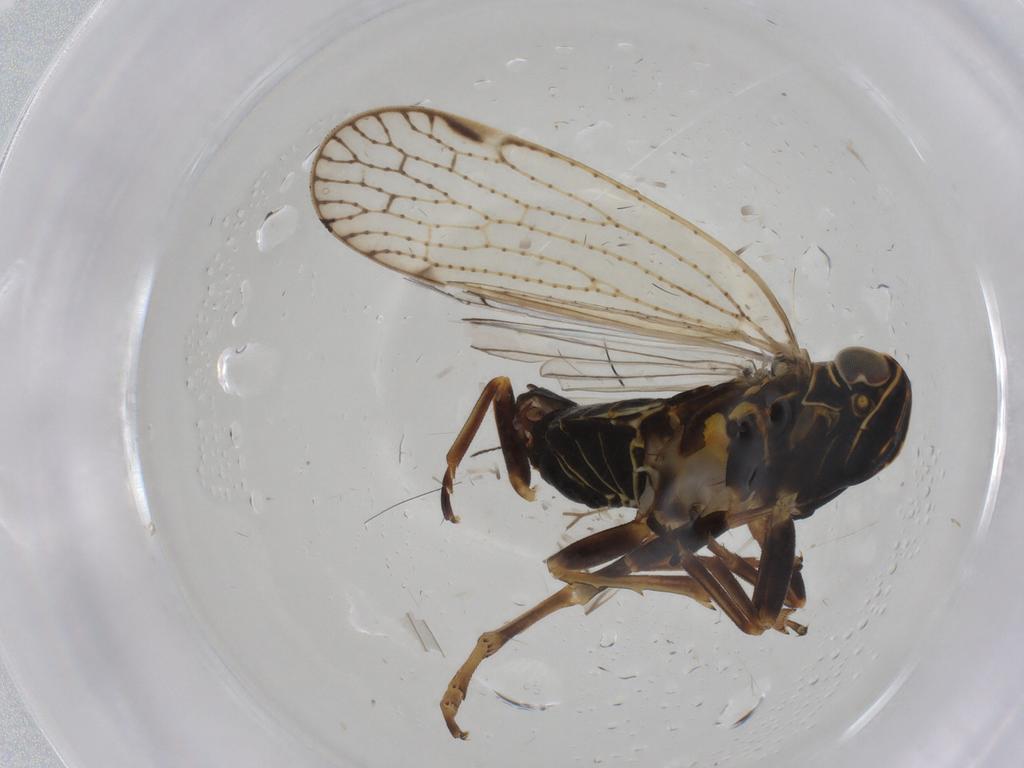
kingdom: Animalia
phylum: Arthropoda
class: Insecta
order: Hemiptera
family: Cixiidae
